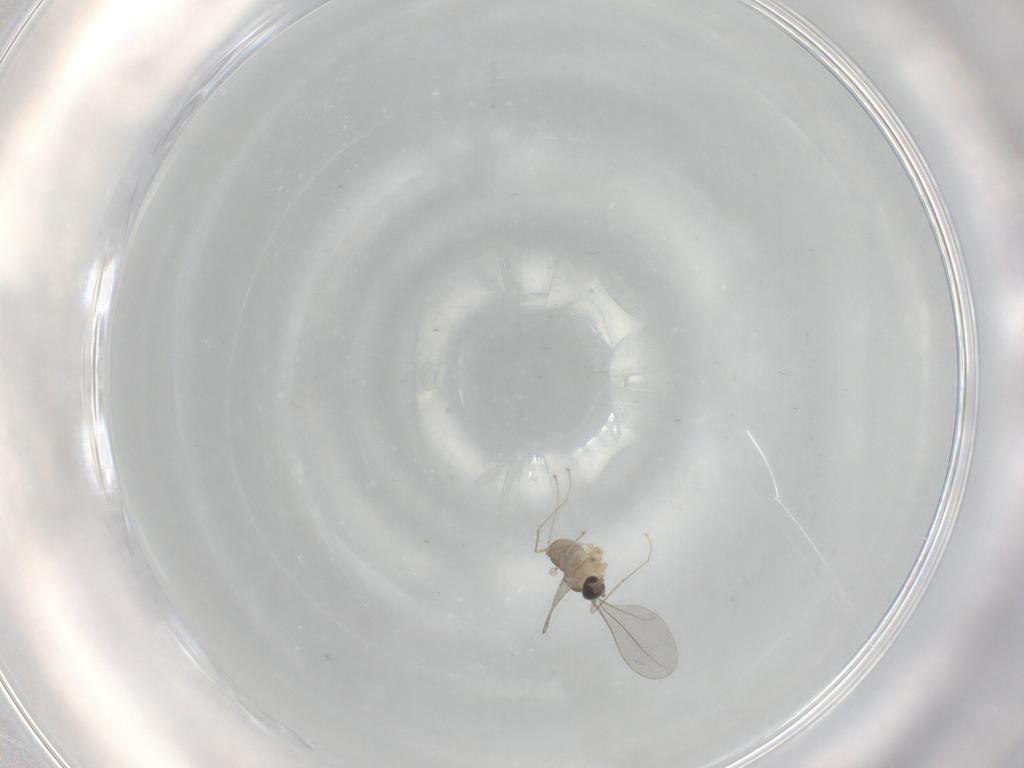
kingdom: Animalia
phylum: Arthropoda
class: Insecta
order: Diptera
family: Cecidomyiidae
